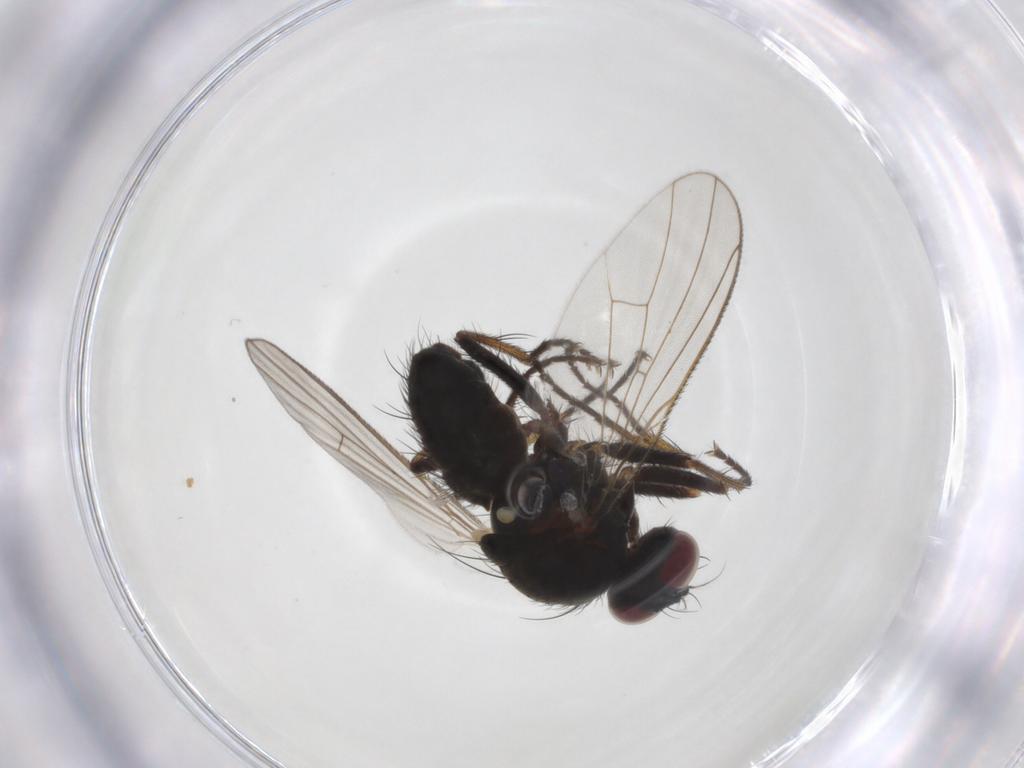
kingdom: Animalia
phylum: Arthropoda
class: Insecta
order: Diptera
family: Muscidae
